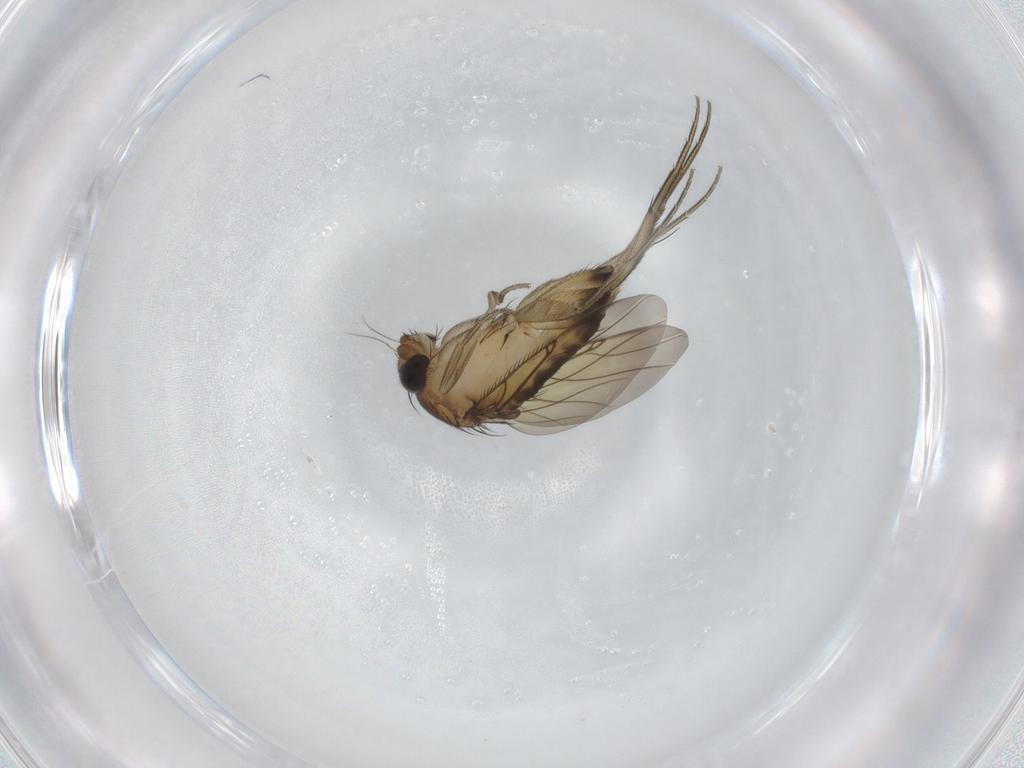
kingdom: Animalia
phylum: Arthropoda
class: Insecta
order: Diptera
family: Phoridae
